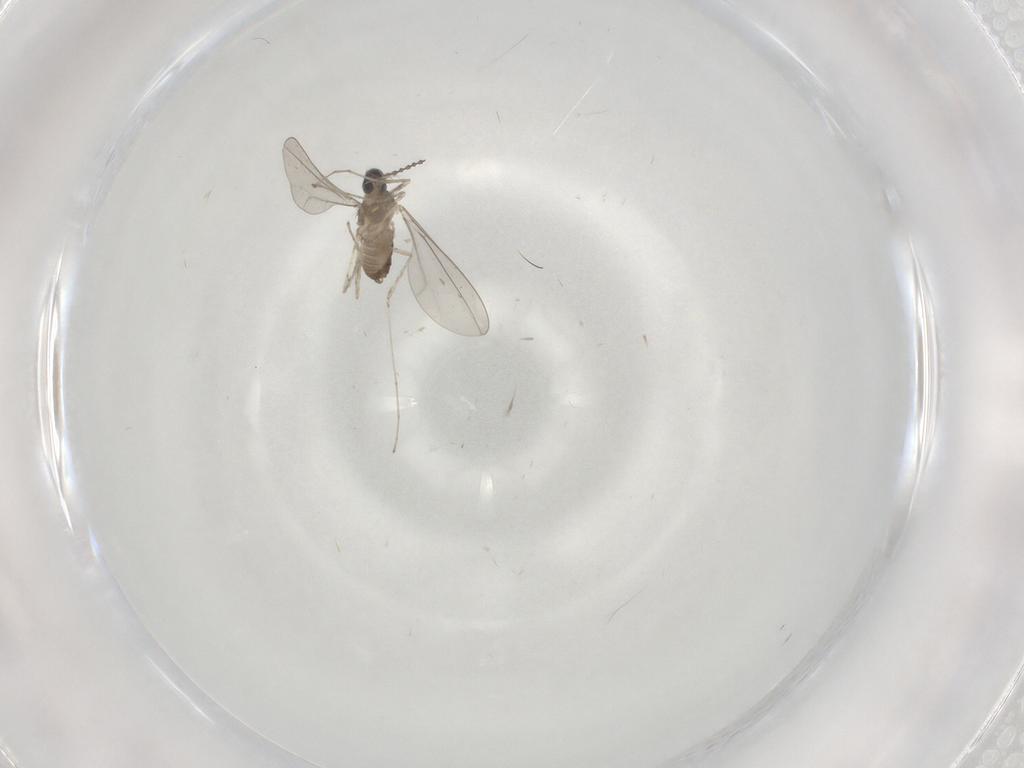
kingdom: Animalia
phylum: Arthropoda
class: Insecta
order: Diptera
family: Cecidomyiidae
